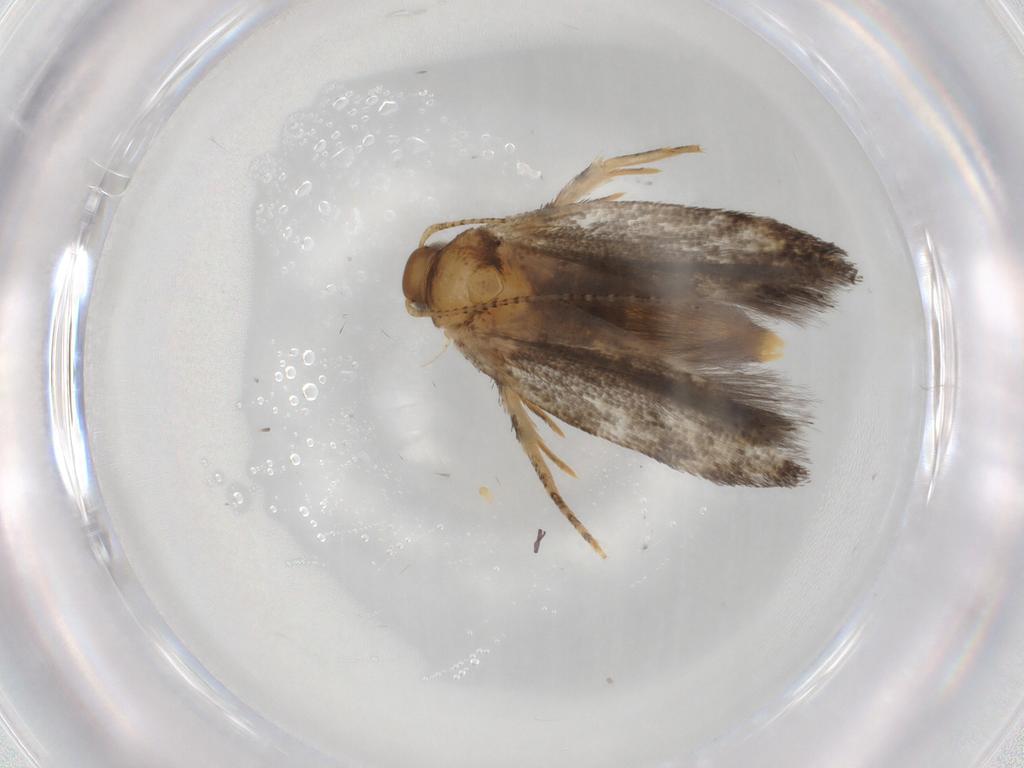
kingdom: Animalia
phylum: Arthropoda
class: Insecta
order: Lepidoptera
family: Gelechiidae
